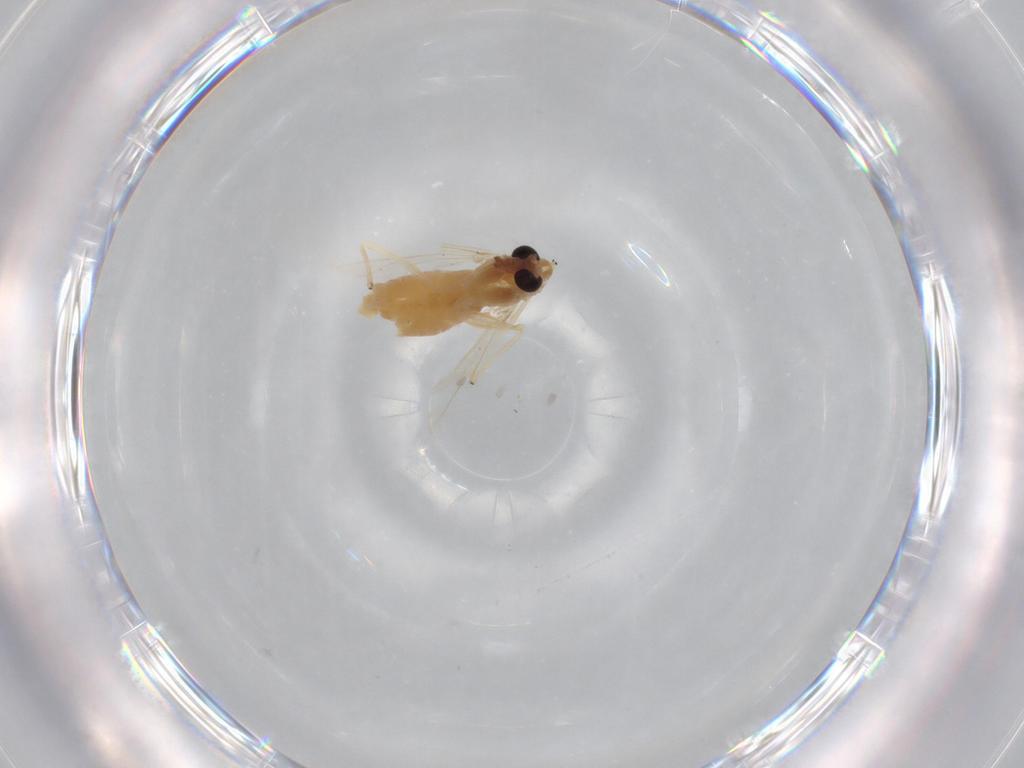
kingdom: Animalia
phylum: Arthropoda
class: Insecta
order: Diptera
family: Chironomidae
